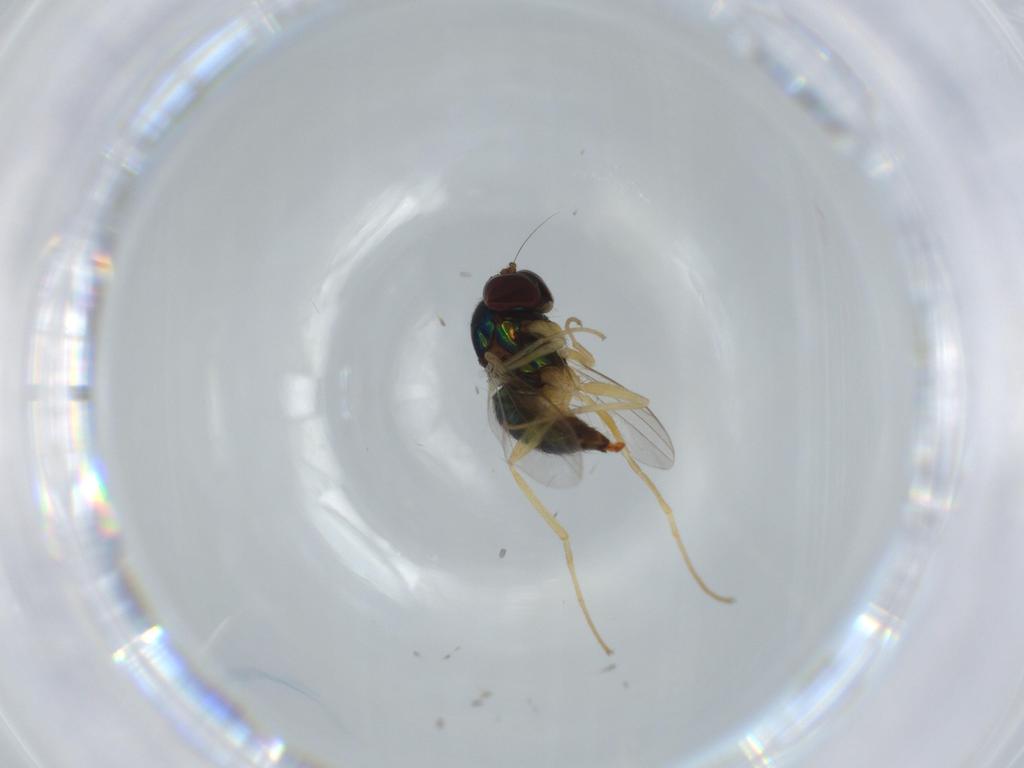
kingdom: Animalia
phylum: Arthropoda
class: Insecta
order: Diptera
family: Dolichopodidae
